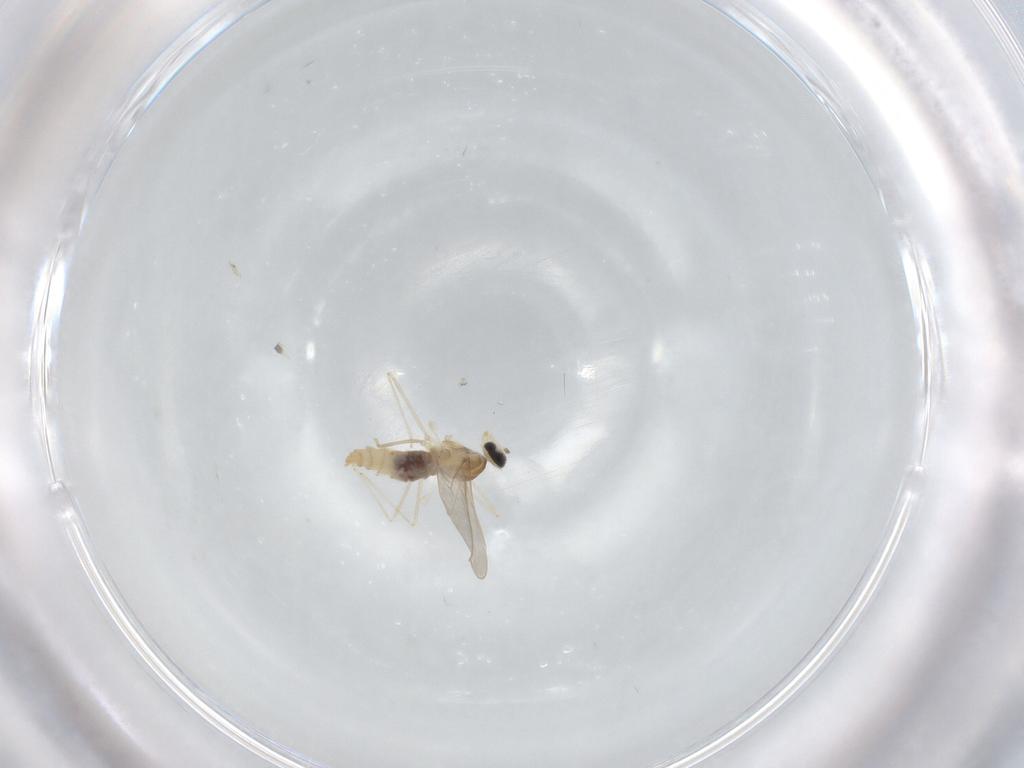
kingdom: Animalia
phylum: Arthropoda
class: Insecta
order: Diptera
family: Cecidomyiidae
